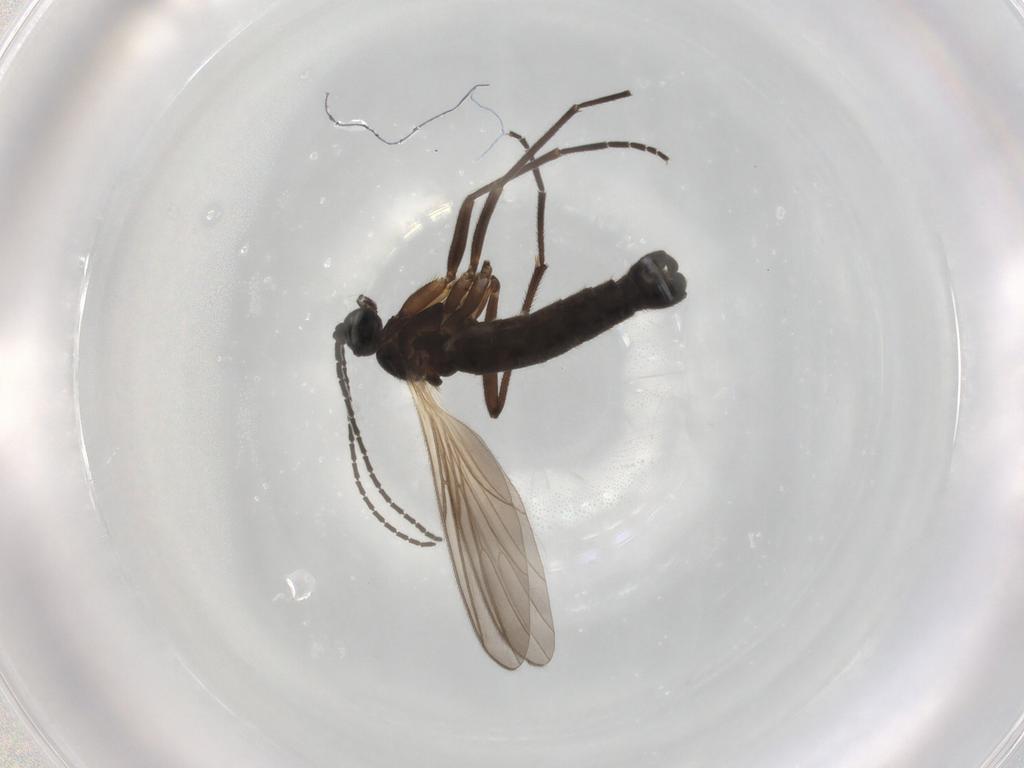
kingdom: Animalia
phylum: Arthropoda
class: Insecta
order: Diptera
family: Sciaridae
